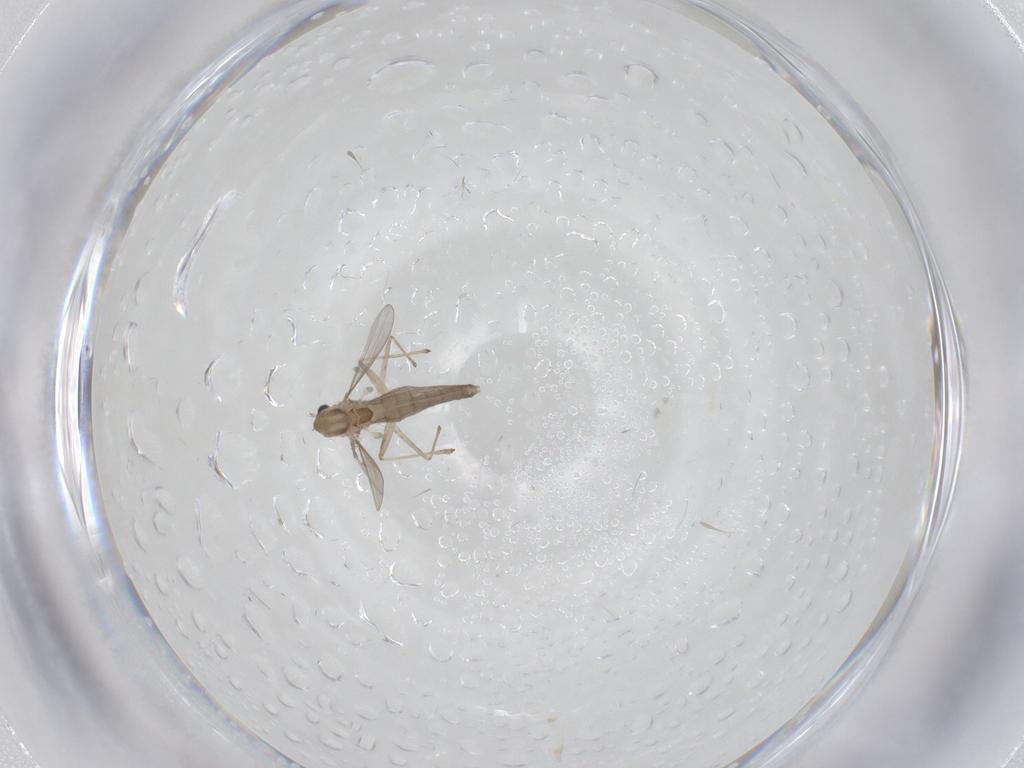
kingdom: Animalia
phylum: Arthropoda
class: Insecta
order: Diptera
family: Chironomidae
